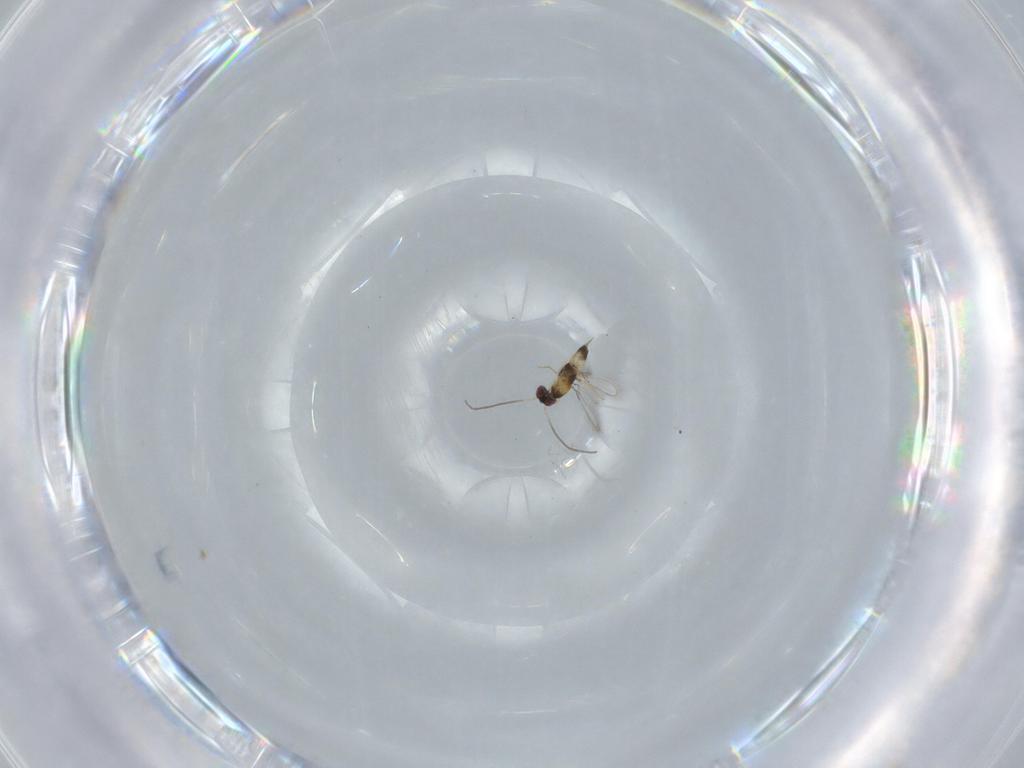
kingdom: Animalia
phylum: Arthropoda
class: Insecta
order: Hymenoptera
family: Mymaridae
